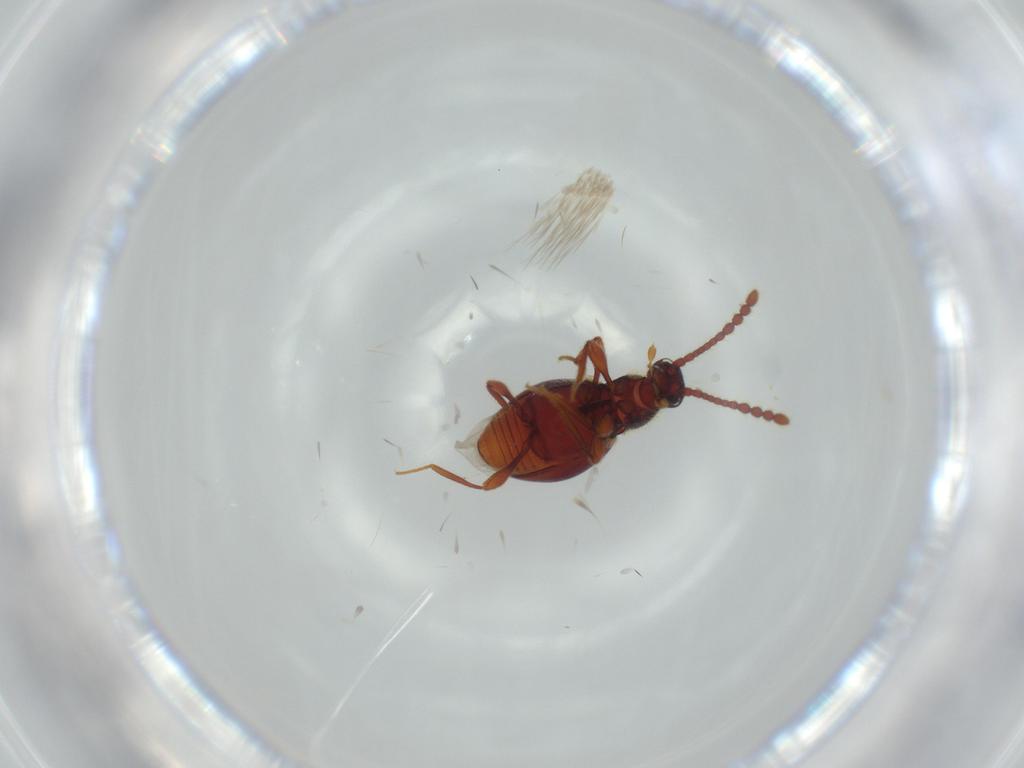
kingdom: Animalia
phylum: Arthropoda
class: Insecta
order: Coleoptera
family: Staphylinidae
